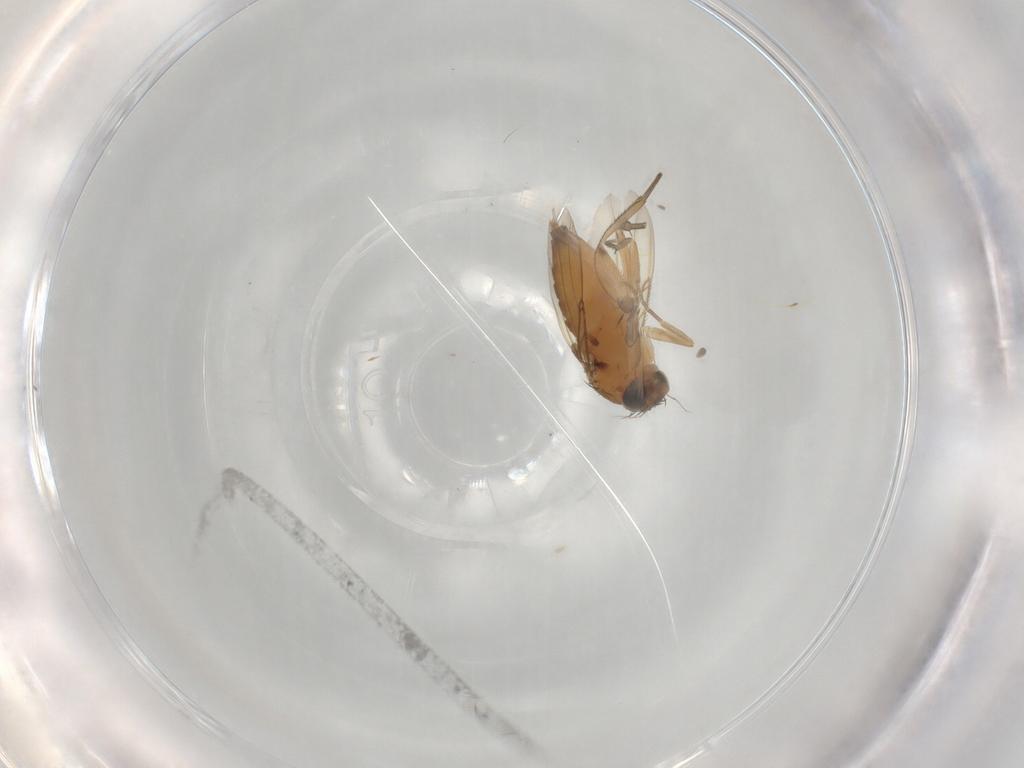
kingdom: Animalia
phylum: Arthropoda
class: Insecta
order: Diptera
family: Phoridae
